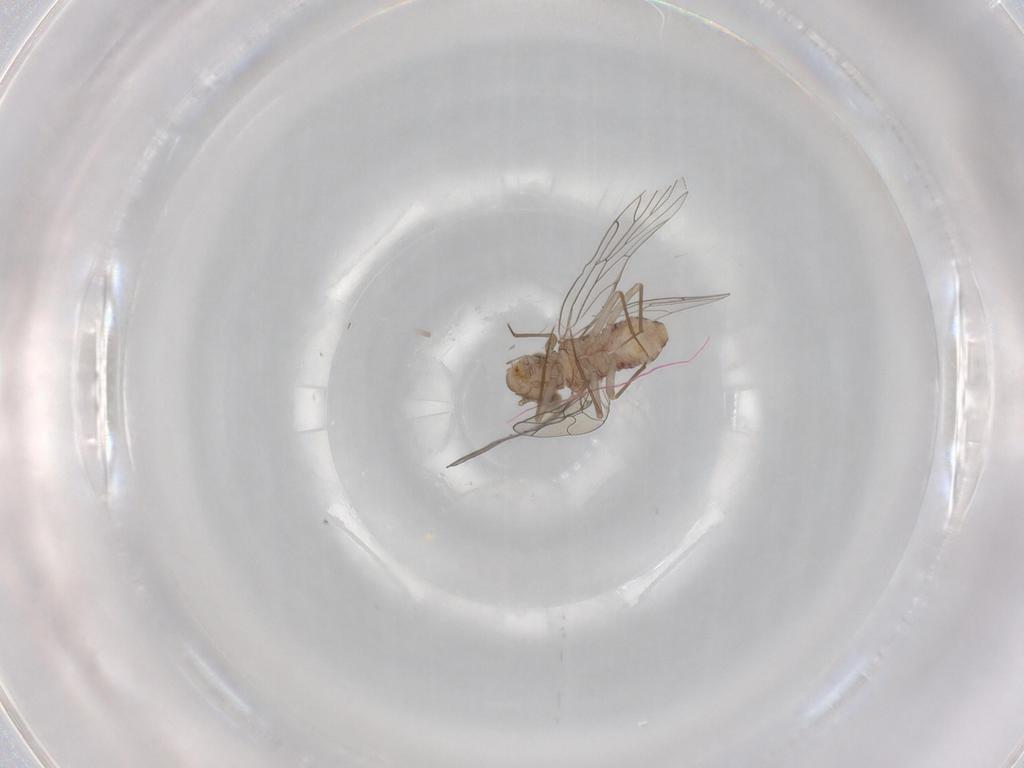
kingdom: Animalia
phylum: Arthropoda
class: Insecta
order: Psocodea
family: Amphientomidae
